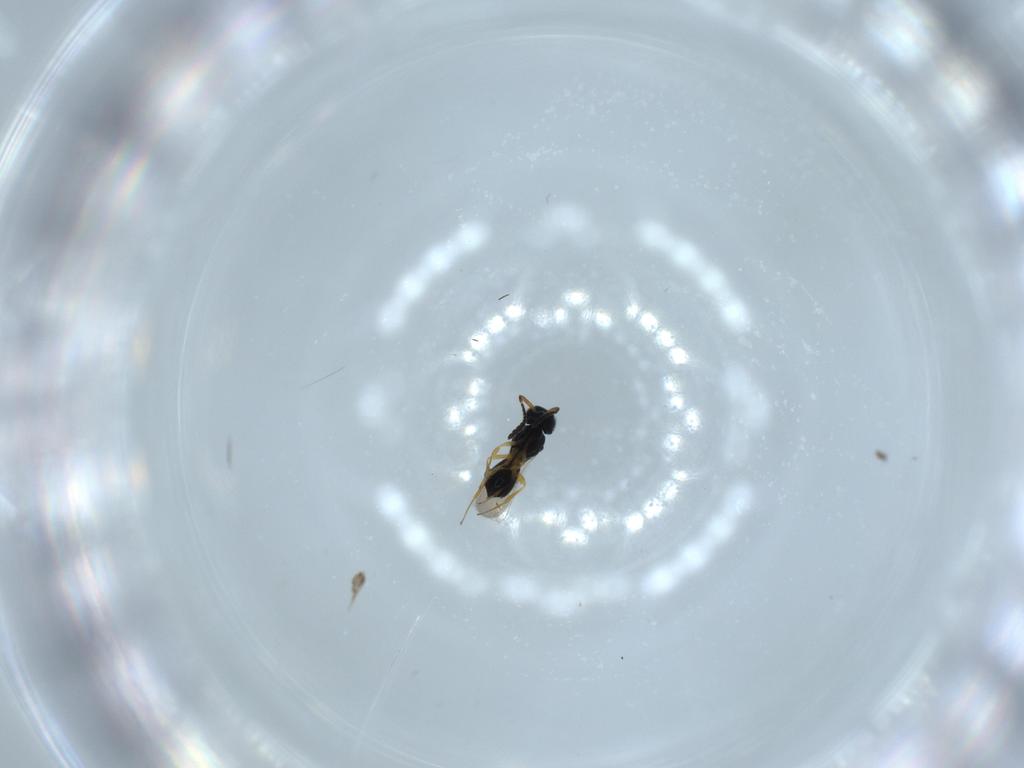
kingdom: Animalia
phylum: Arthropoda
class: Insecta
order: Hymenoptera
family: Scelionidae
